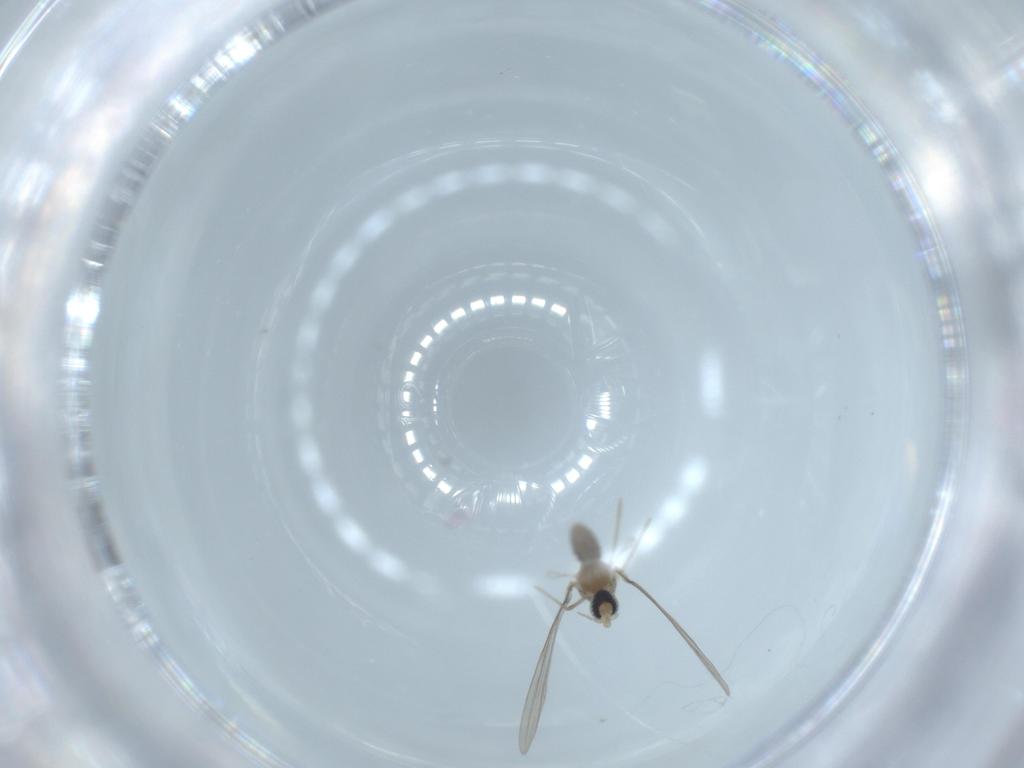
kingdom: Animalia
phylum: Arthropoda
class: Insecta
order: Diptera
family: Cecidomyiidae
